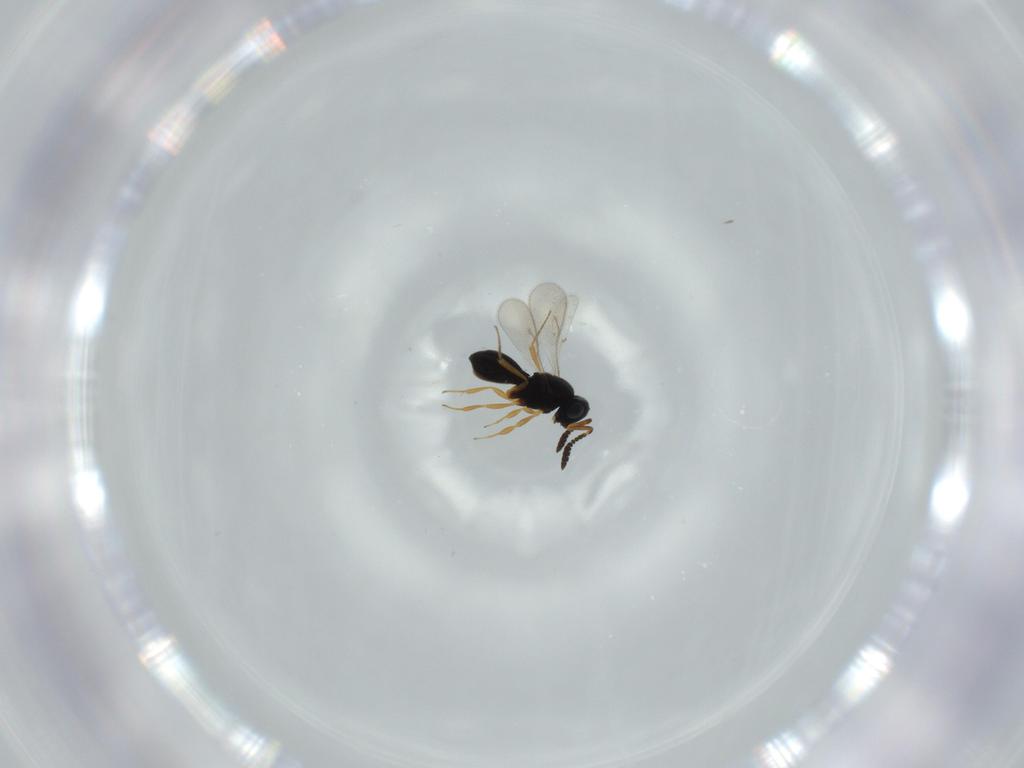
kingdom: Animalia
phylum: Arthropoda
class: Insecta
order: Hymenoptera
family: Scelionidae
